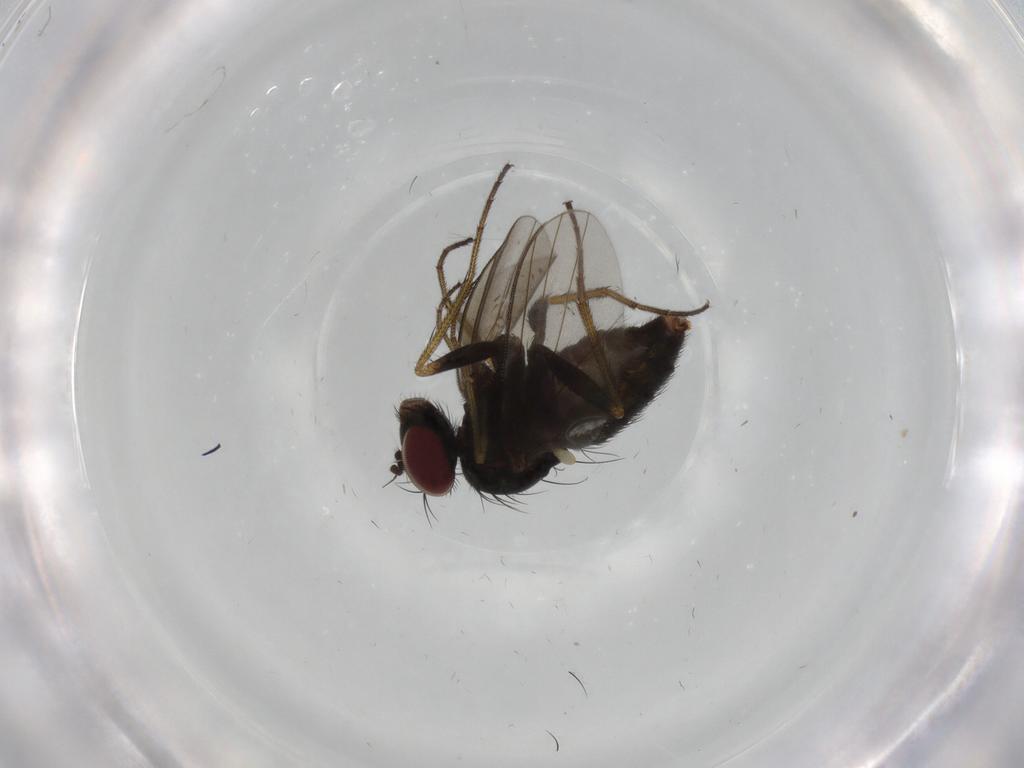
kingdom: Animalia
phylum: Arthropoda
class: Insecta
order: Diptera
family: Dolichopodidae
